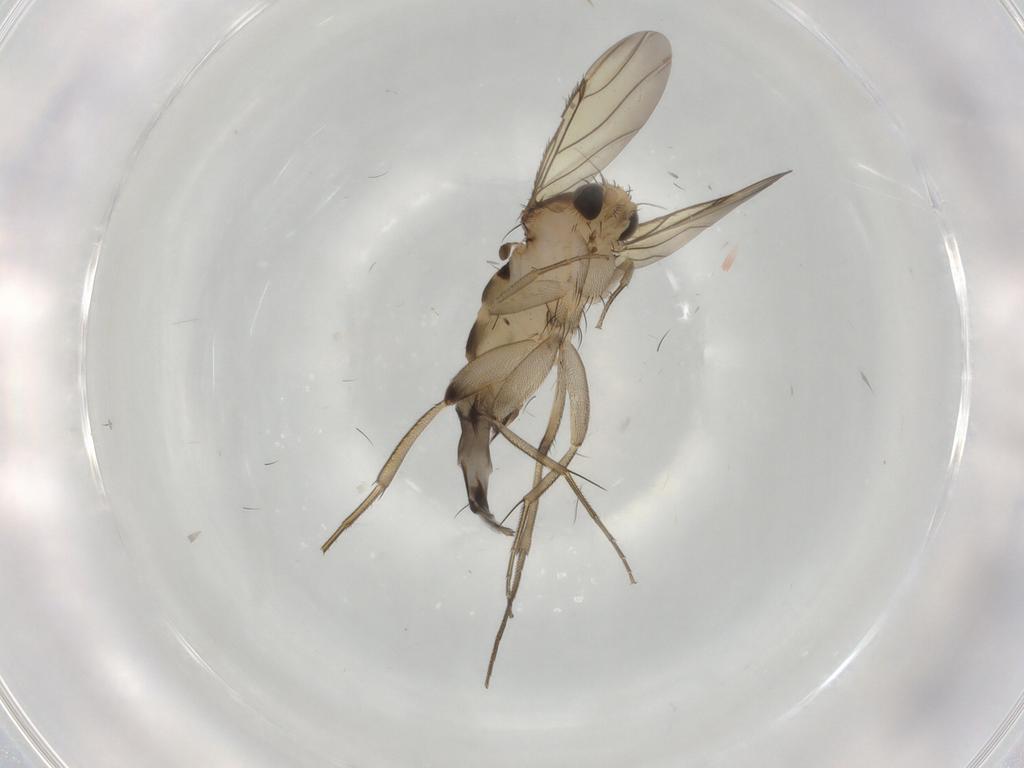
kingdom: Animalia
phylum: Arthropoda
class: Insecta
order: Diptera
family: Phoridae
